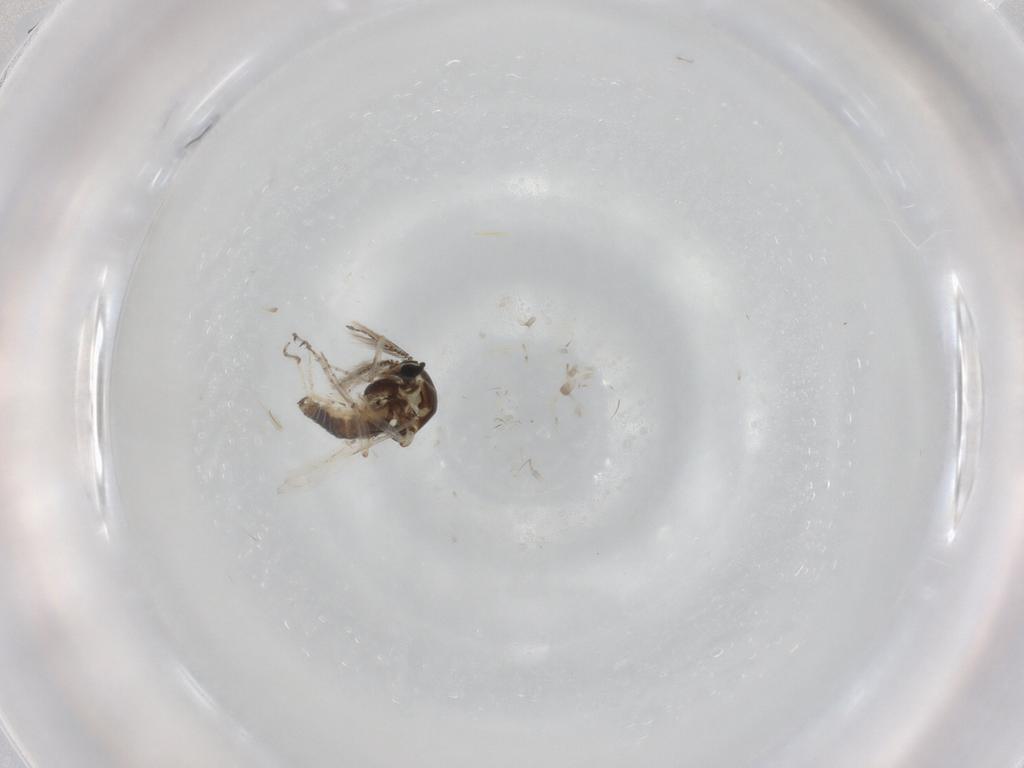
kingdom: Animalia
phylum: Arthropoda
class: Insecta
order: Diptera
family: Ceratopogonidae
